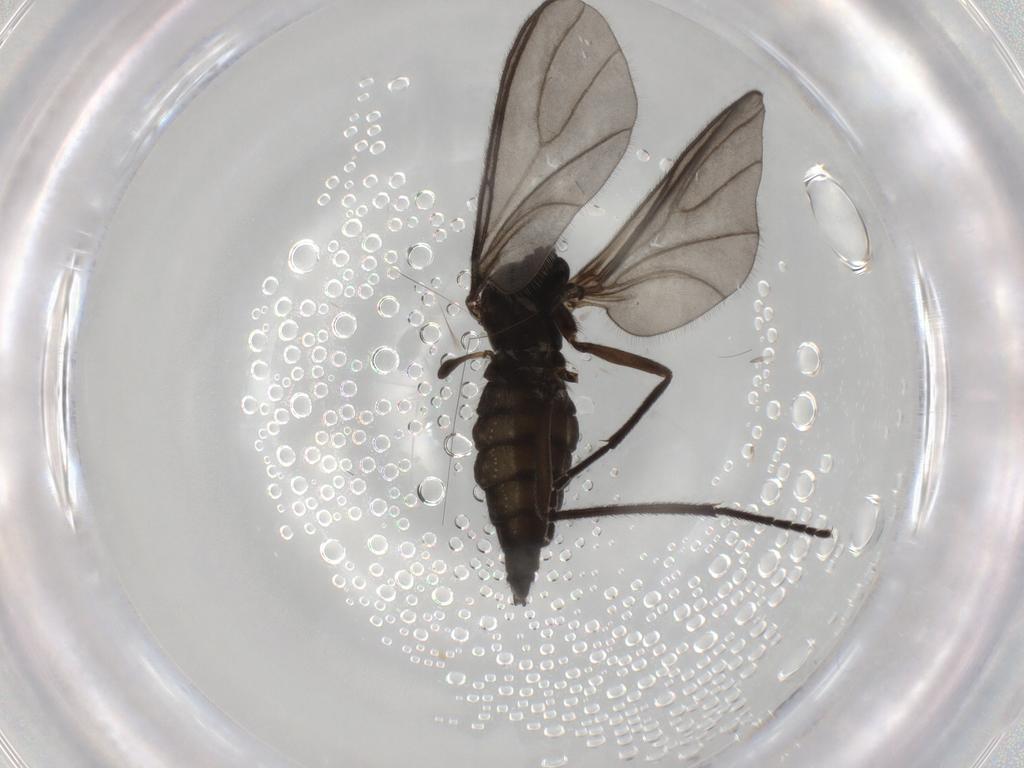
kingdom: Animalia
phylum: Arthropoda
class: Insecta
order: Diptera
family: Sciaridae
